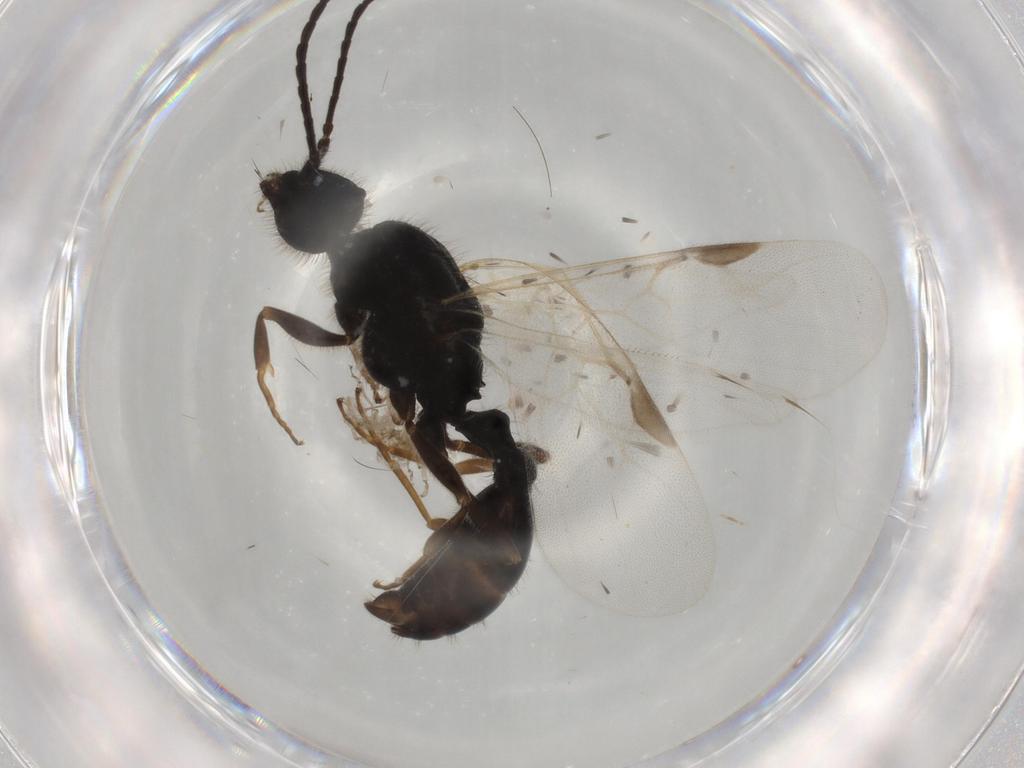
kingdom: Animalia
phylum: Arthropoda
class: Insecta
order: Hymenoptera
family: Formicidae
